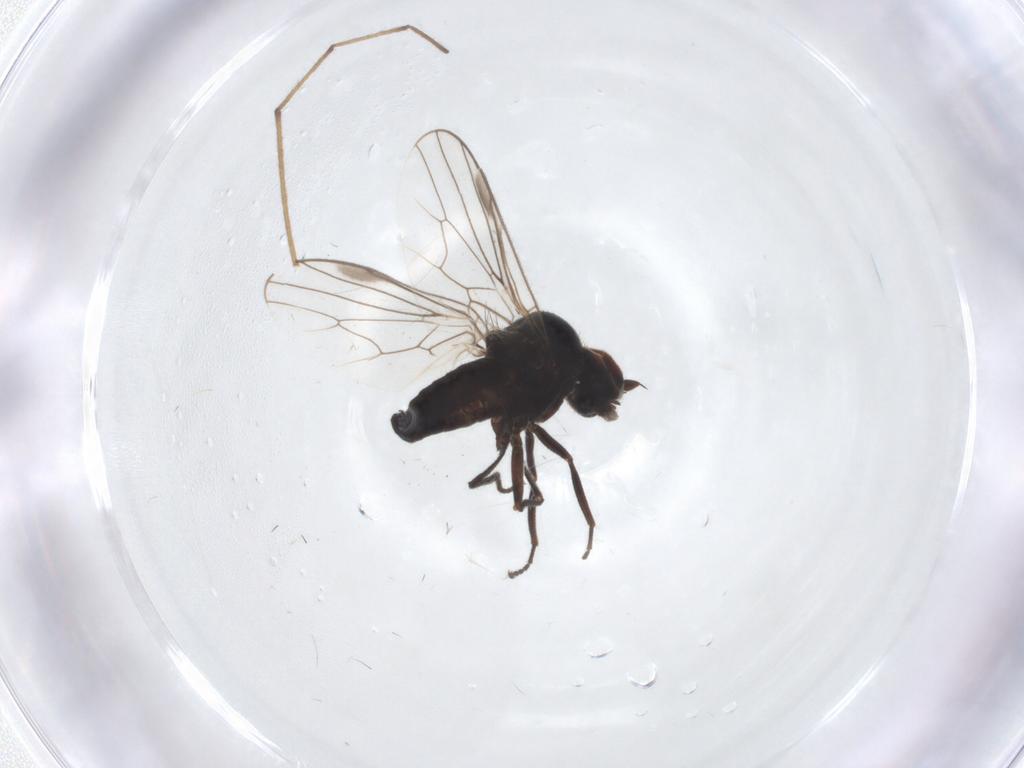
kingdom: Animalia
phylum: Arthropoda
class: Insecta
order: Diptera
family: Hybotidae
